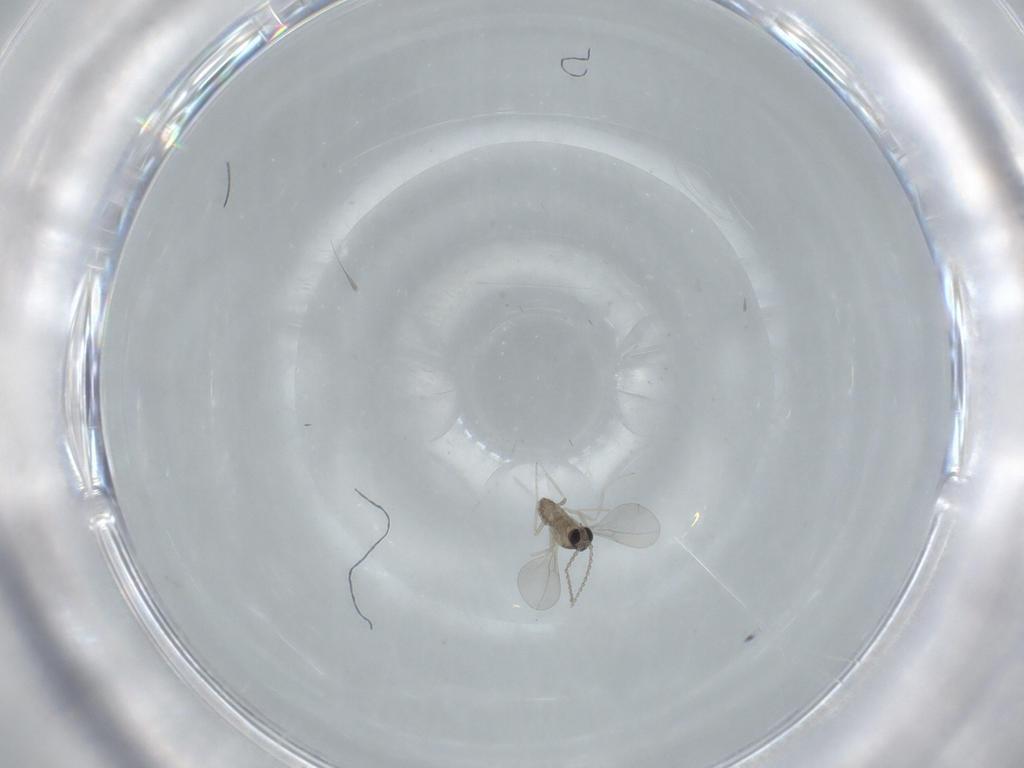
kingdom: Animalia
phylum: Arthropoda
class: Insecta
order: Diptera
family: Cecidomyiidae
